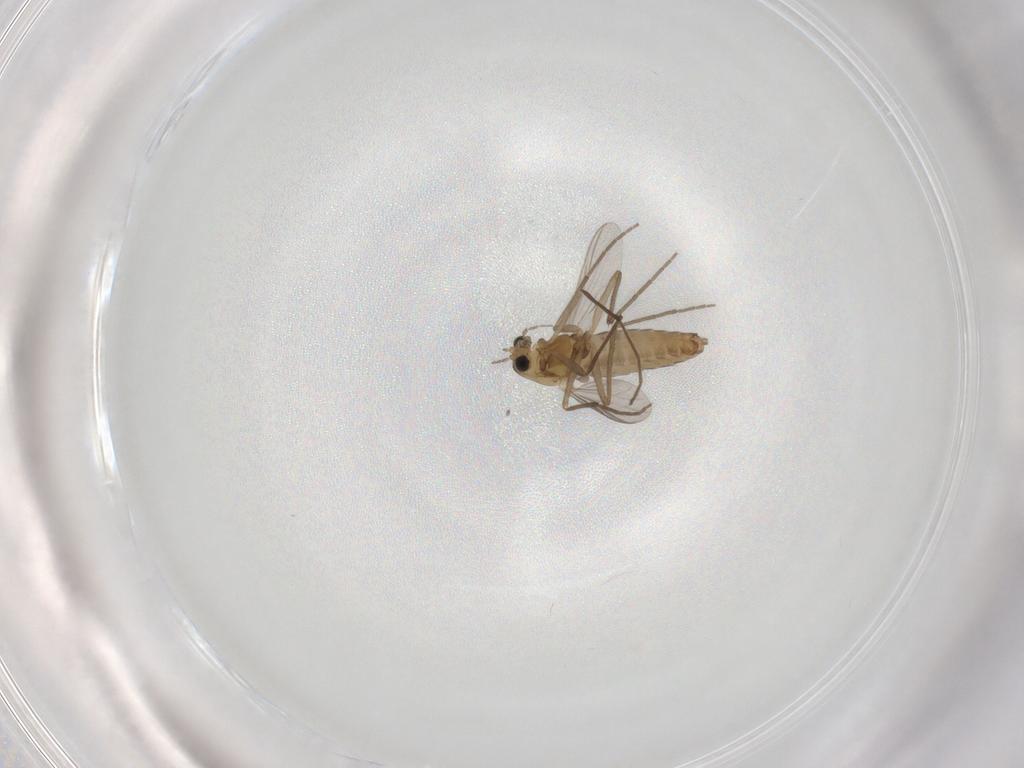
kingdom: Animalia
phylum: Arthropoda
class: Insecta
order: Diptera
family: Chironomidae
